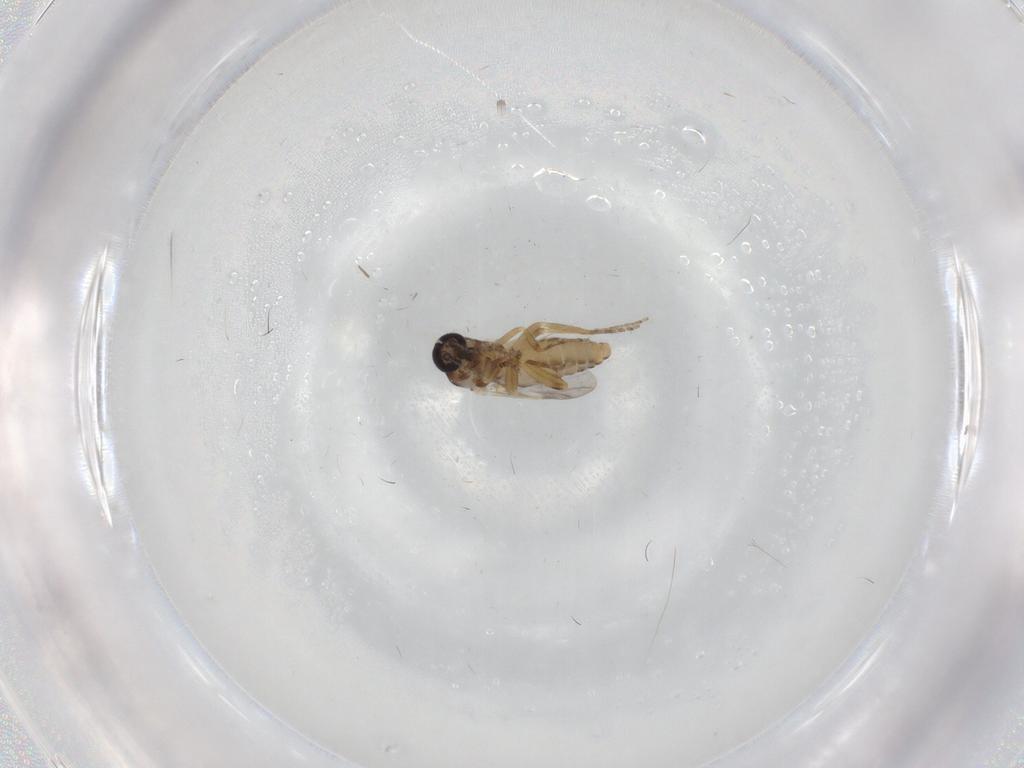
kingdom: Animalia
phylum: Arthropoda
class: Insecta
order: Diptera
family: Ceratopogonidae
